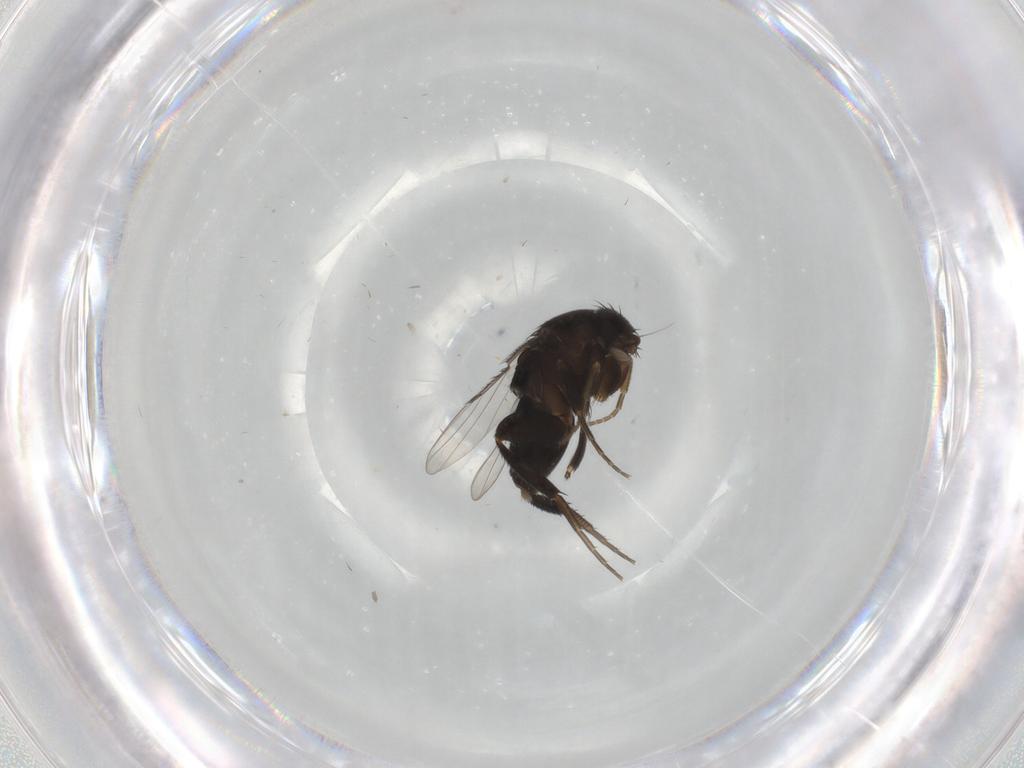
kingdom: Animalia
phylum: Arthropoda
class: Insecta
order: Diptera
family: Phoridae
